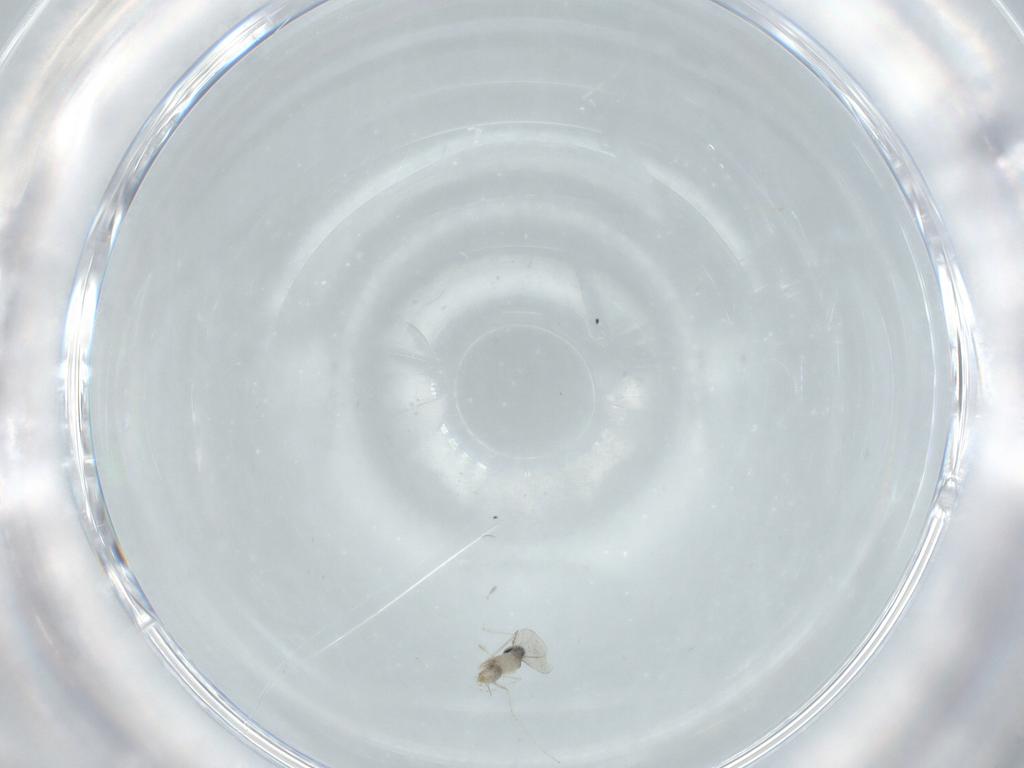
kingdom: Animalia
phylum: Arthropoda
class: Insecta
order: Diptera
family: Cecidomyiidae
